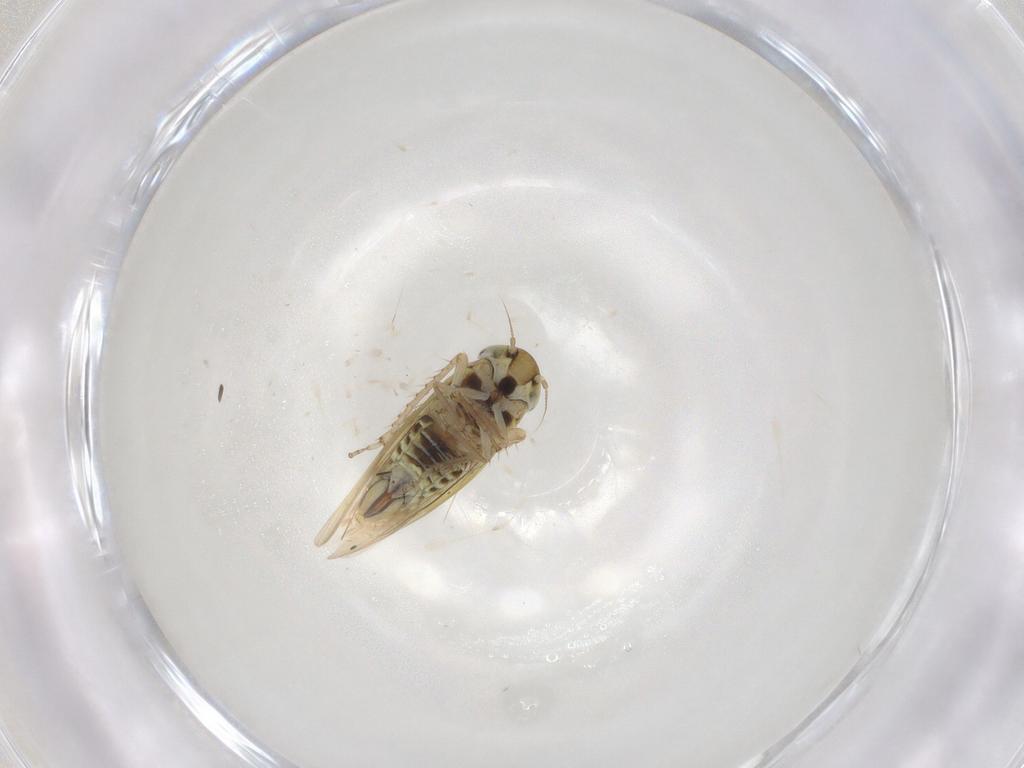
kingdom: Animalia
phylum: Arthropoda
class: Insecta
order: Hemiptera
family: Cicadellidae
